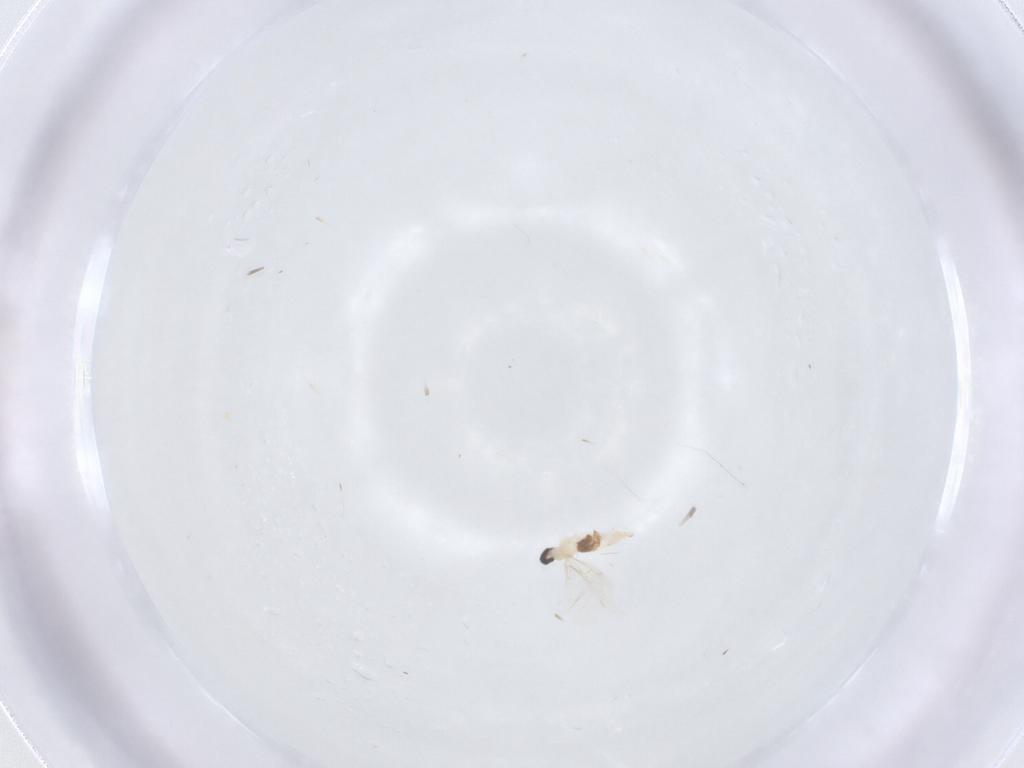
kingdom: Animalia
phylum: Arthropoda
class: Insecta
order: Diptera
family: Cecidomyiidae
